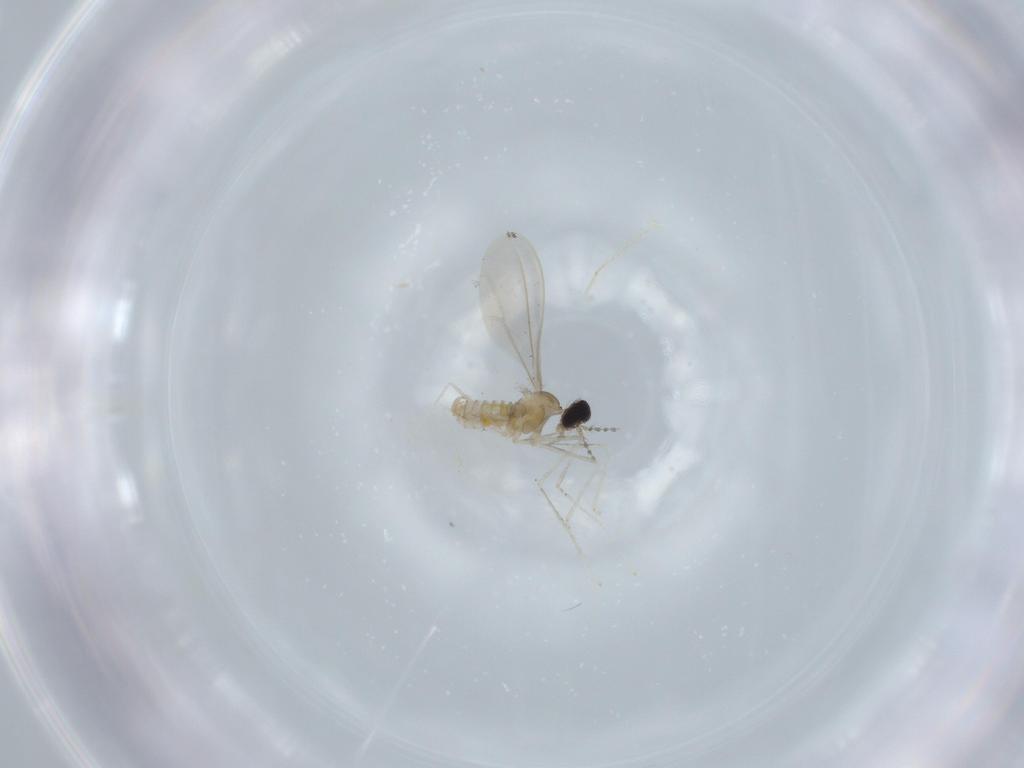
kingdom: Animalia
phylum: Arthropoda
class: Insecta
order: Diptera
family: Cecidomyiidae
